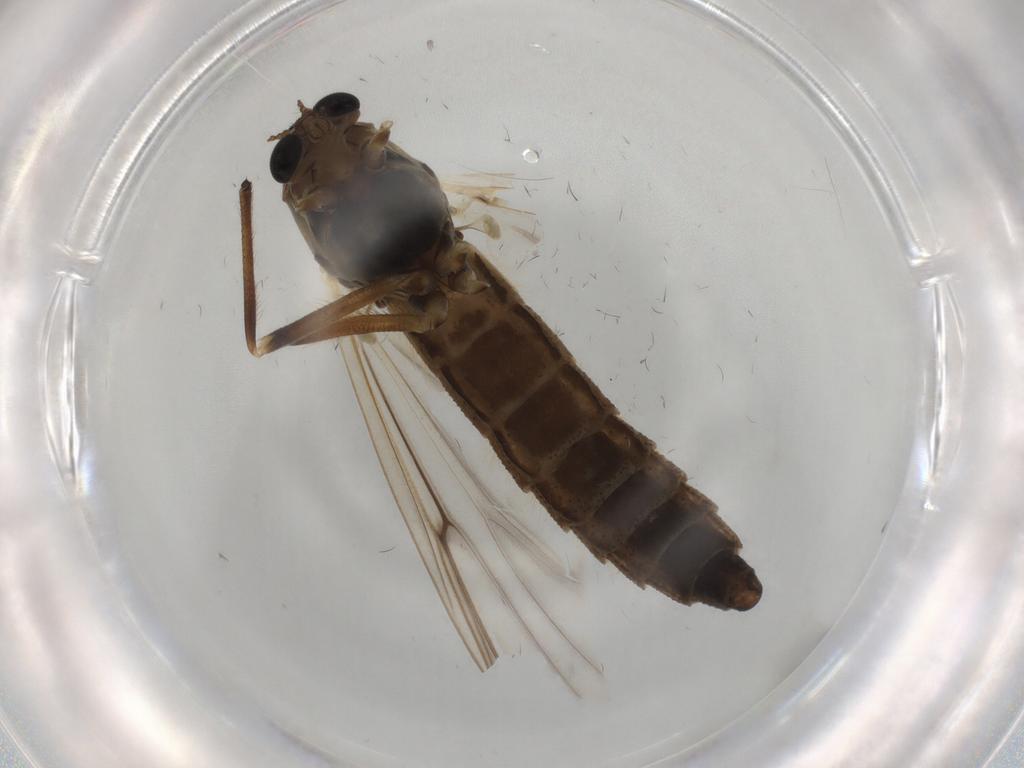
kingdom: Animalia
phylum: Arthropoda
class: Insecta
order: Diptera
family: Chironomidae
